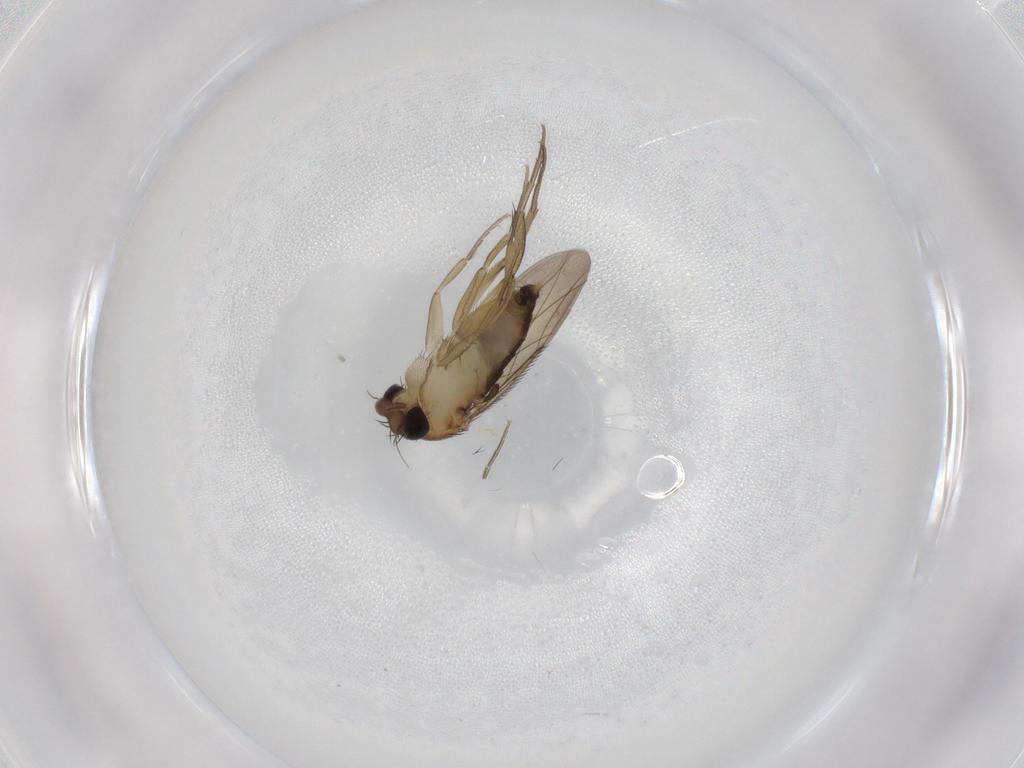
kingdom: Animalia
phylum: Arthropoda
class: Insecta
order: Diptera
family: Phoridae
